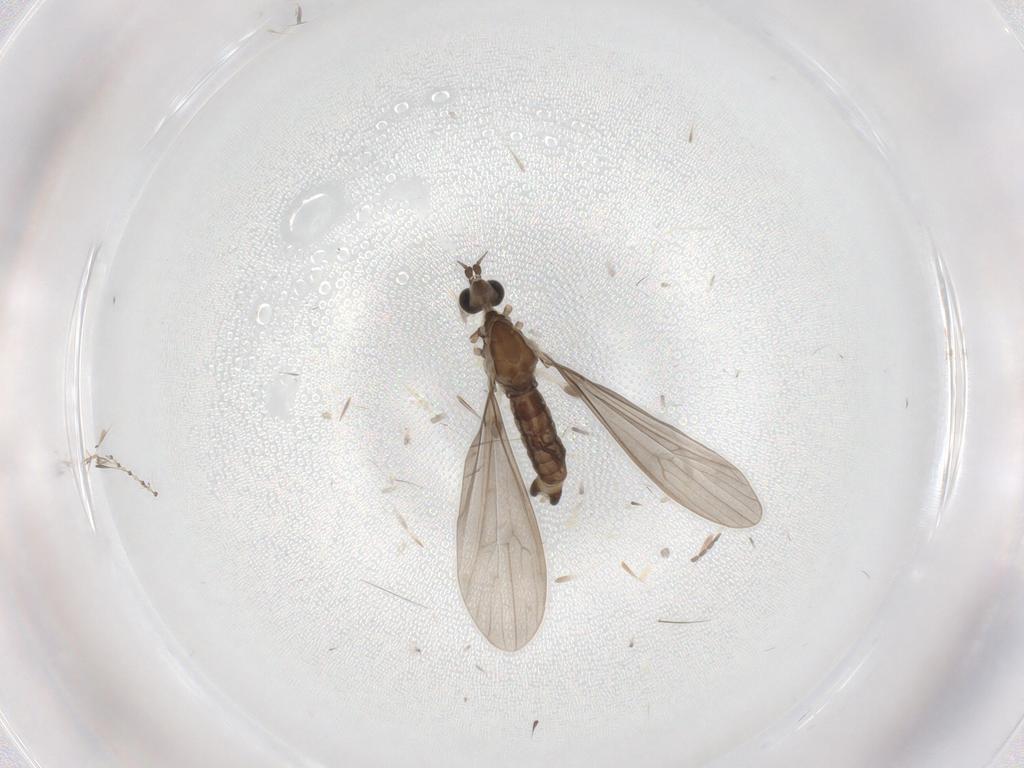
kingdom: Animalia
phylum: Arthropoda
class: Insecta
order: Diptera
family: Limoniidae
